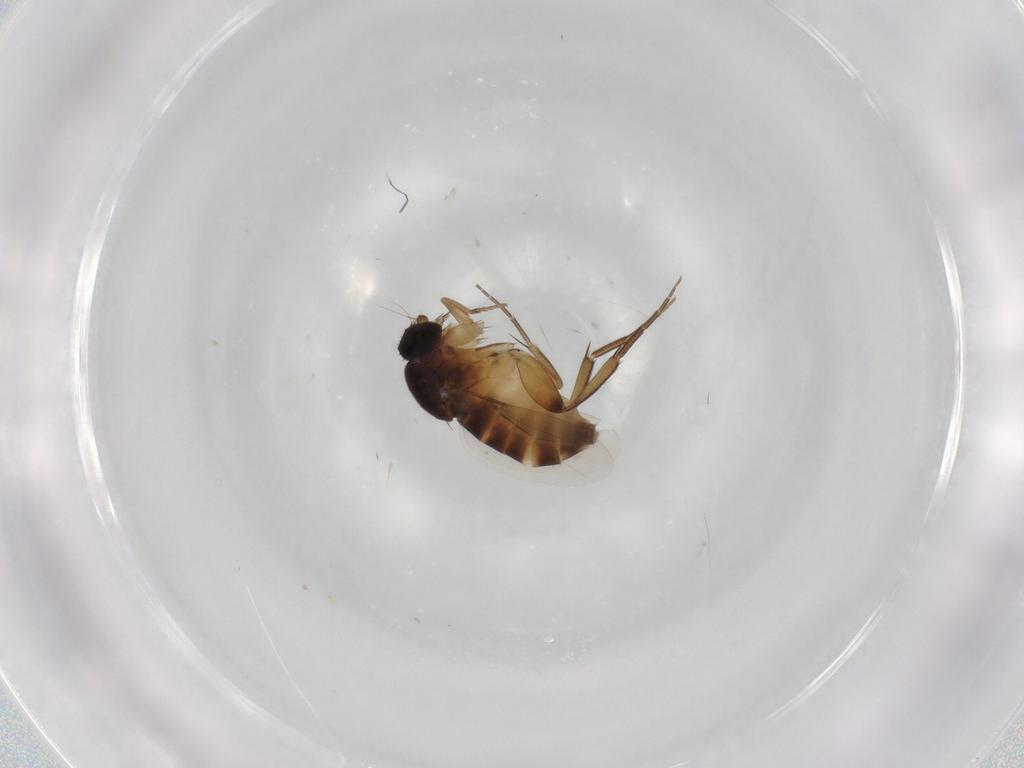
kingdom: Animalia
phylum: Arthropoda
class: Insecta
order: Diptera
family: Phoridae
